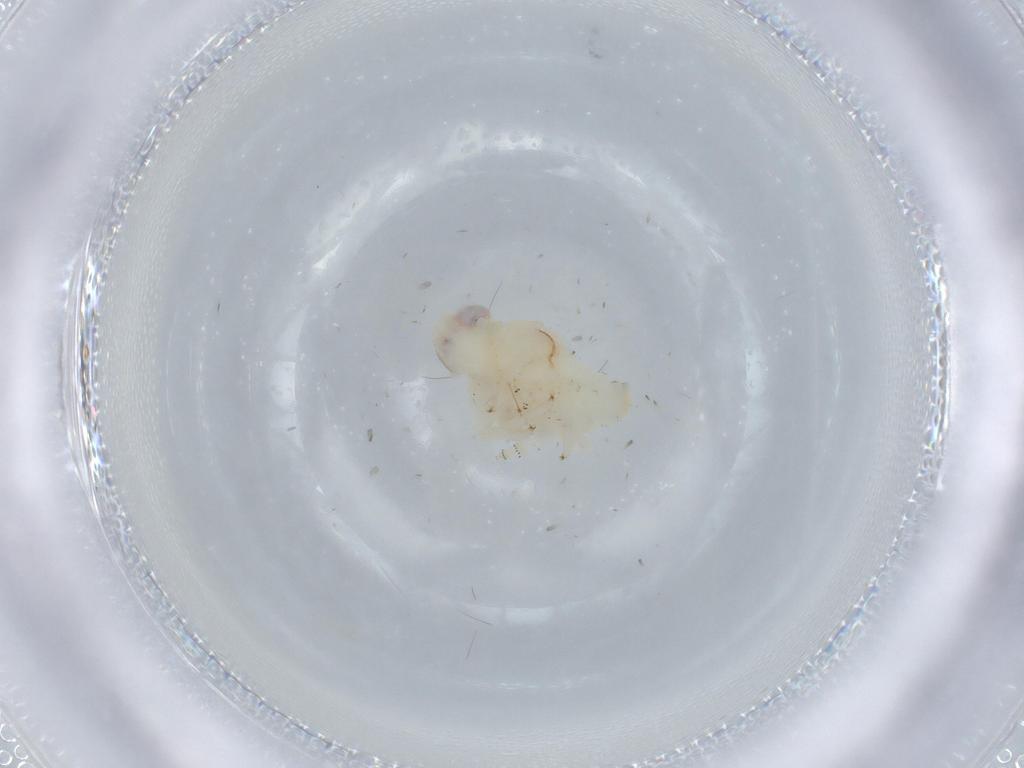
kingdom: Animalia
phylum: Arthropoda
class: Insecta
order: Hemiptera
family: Nogodinidae
